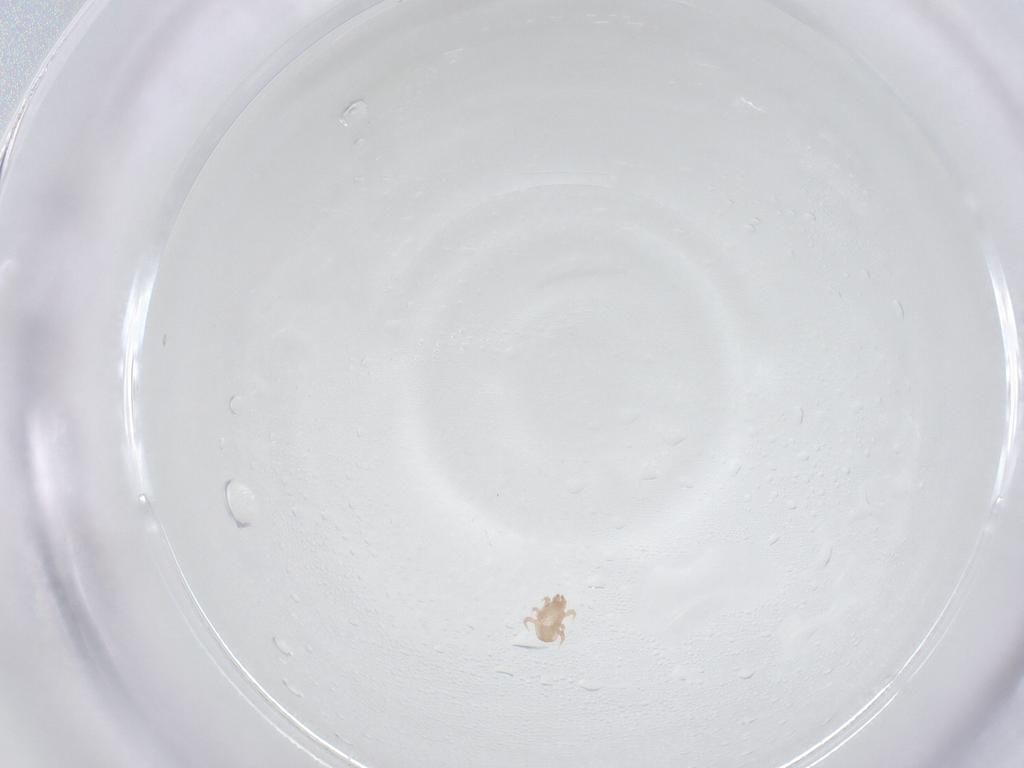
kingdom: Animalia
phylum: Arthropoda
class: Arachnida
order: Mesostigmata
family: Digamasellidae
